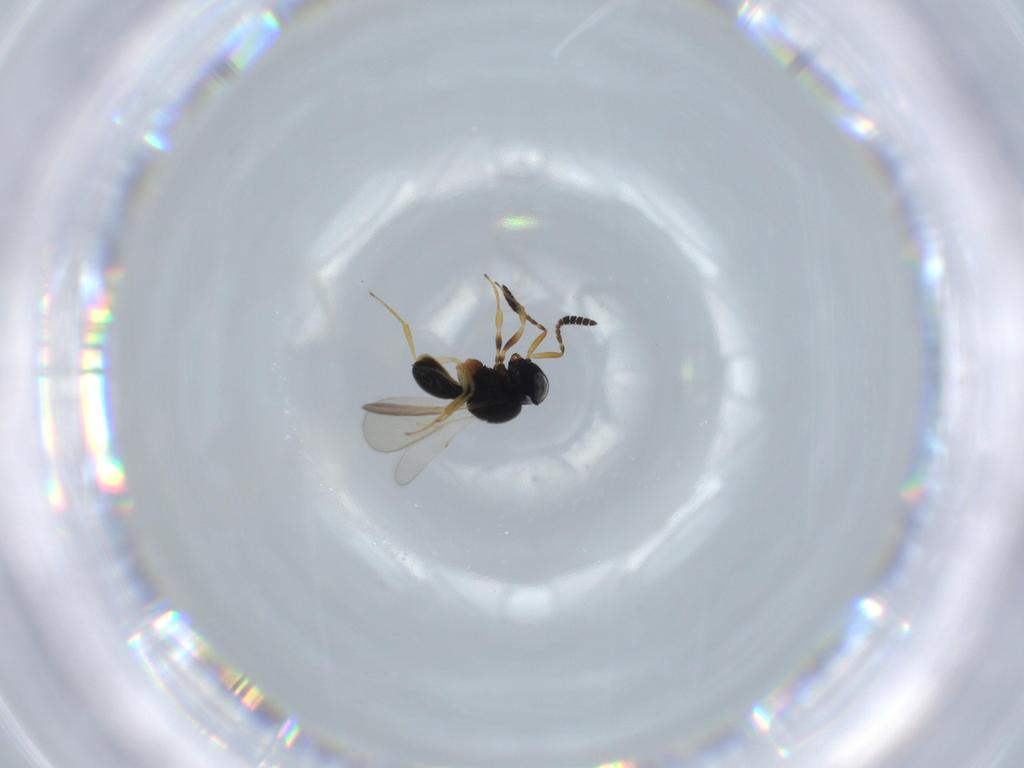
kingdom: Animalia
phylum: Arthropoda
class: Insecta
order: Hymenoptera
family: Scelionidae
